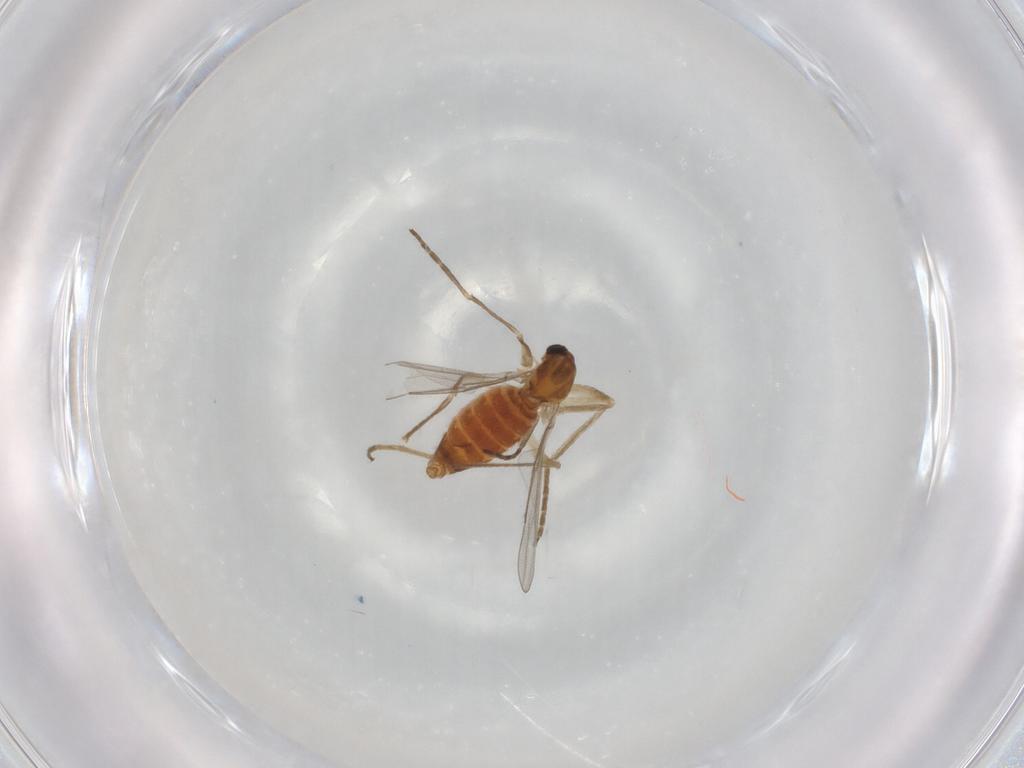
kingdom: Animalia
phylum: Arthropoda
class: Insecta
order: Diptera
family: Cecidomyiidae
